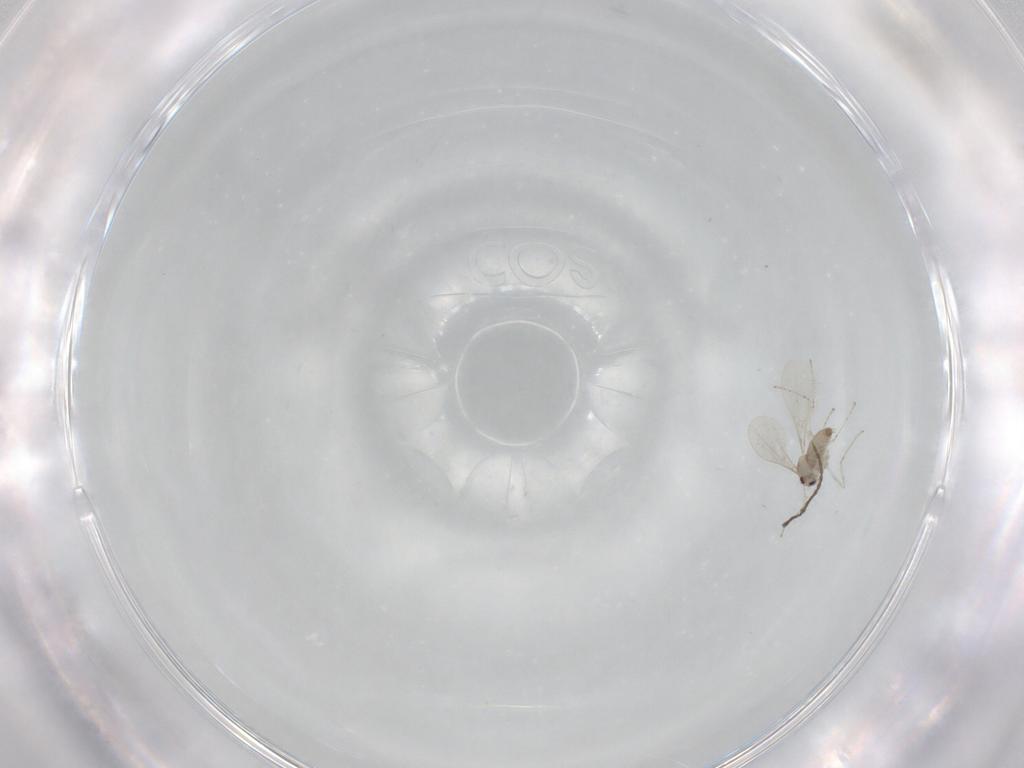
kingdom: Animalia
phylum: Arthropoda
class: Insecta
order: Diptera
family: Cecidomyiidae
